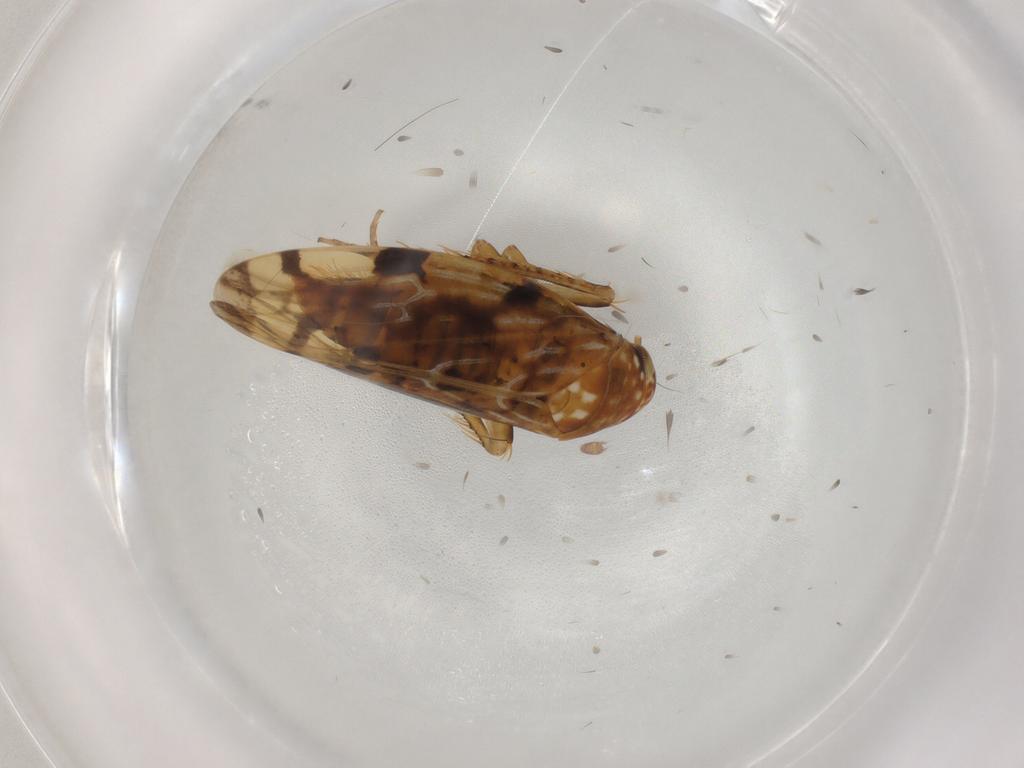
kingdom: Animalia
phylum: Arthropoda
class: Insecta
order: Hemiptera
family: Cicadellidae
